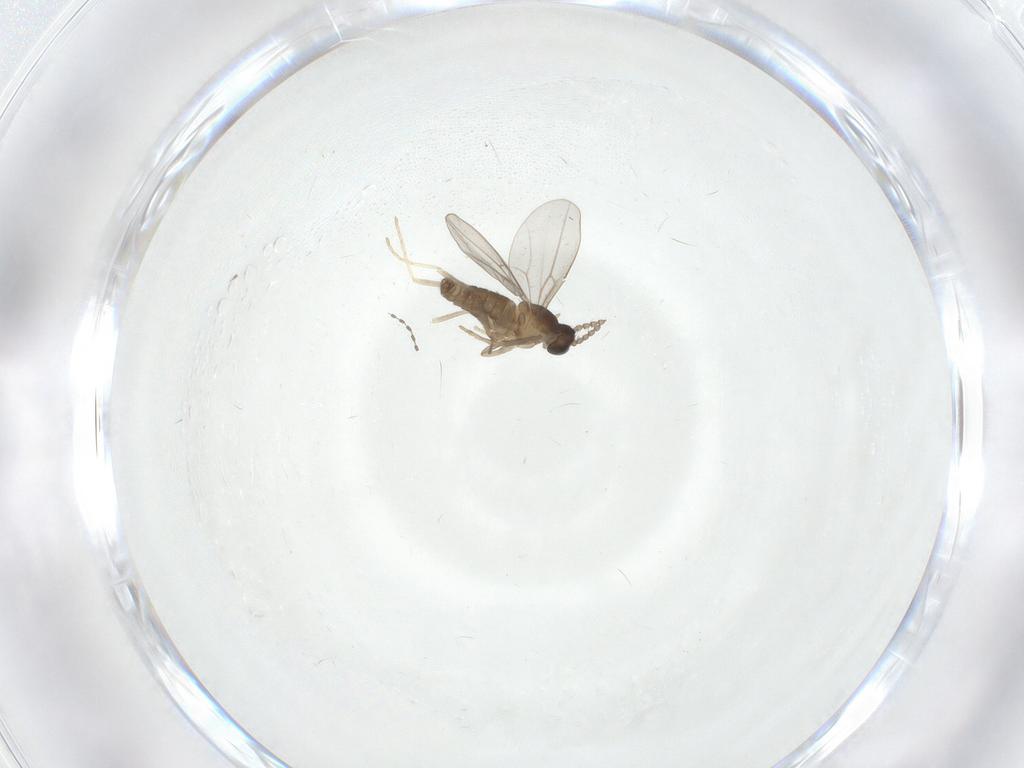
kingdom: Animalia
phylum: Arthropoda
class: Insecta
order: Diptera
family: Cecidomyiidae
